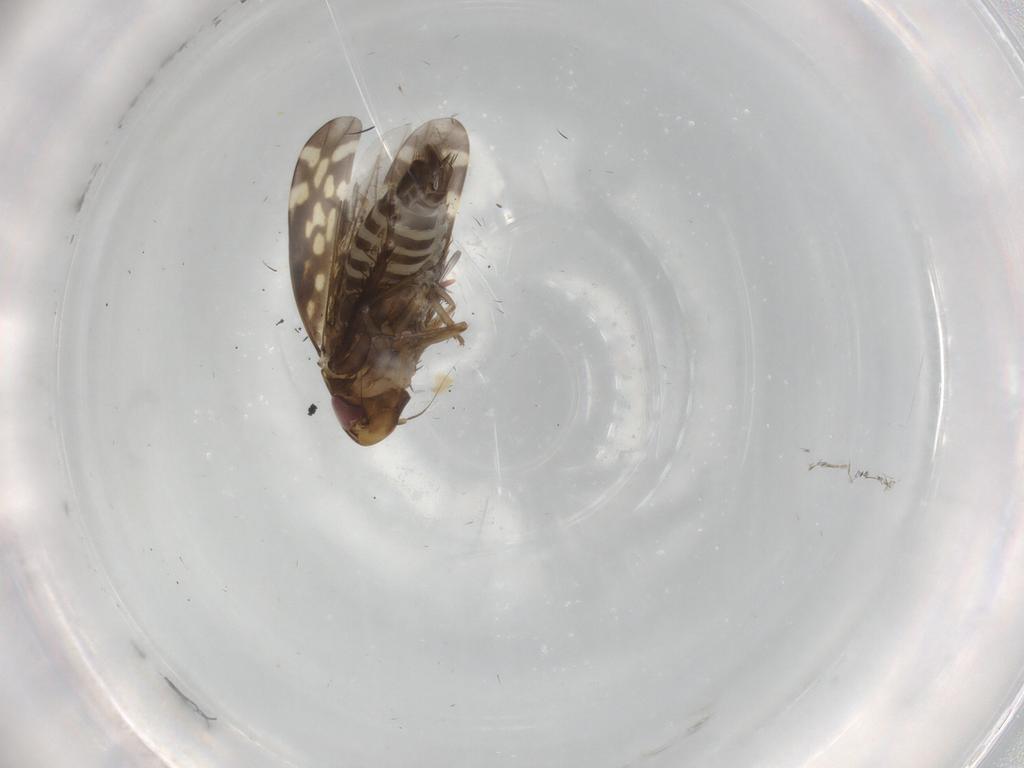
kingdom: Animalia
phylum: Arthropoda
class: Insecta
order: Hemiptera
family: Cicadellidae
